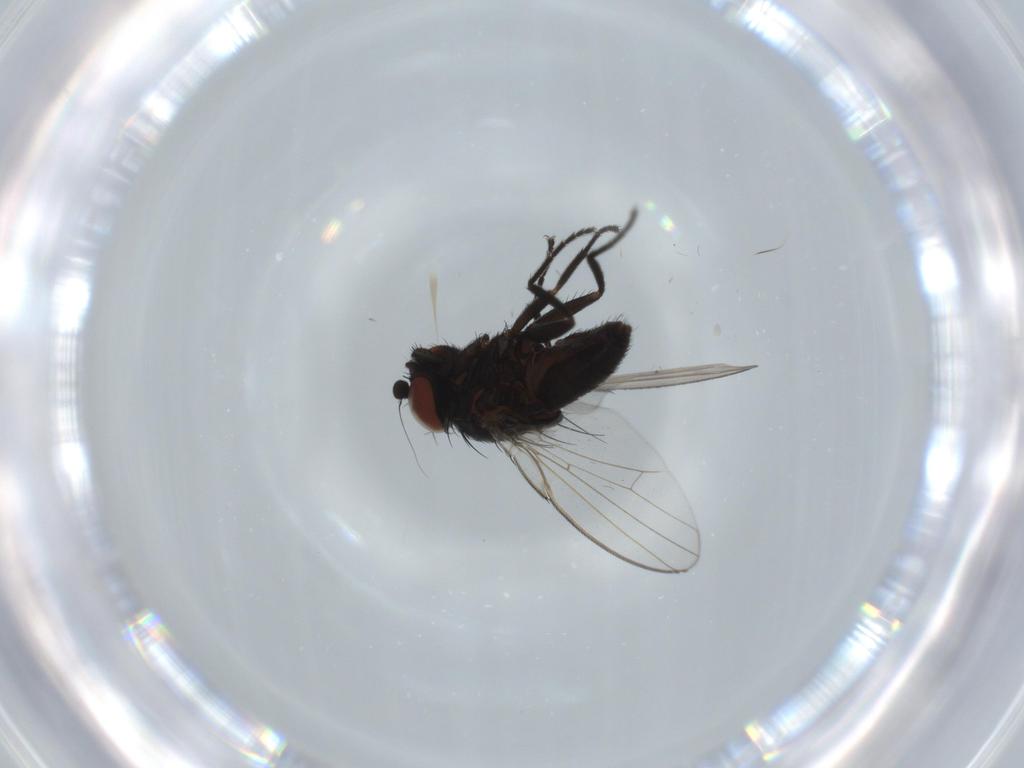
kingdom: Animalia
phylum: Arthropoda
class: Insecta
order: Diptera
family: Milichiidae
